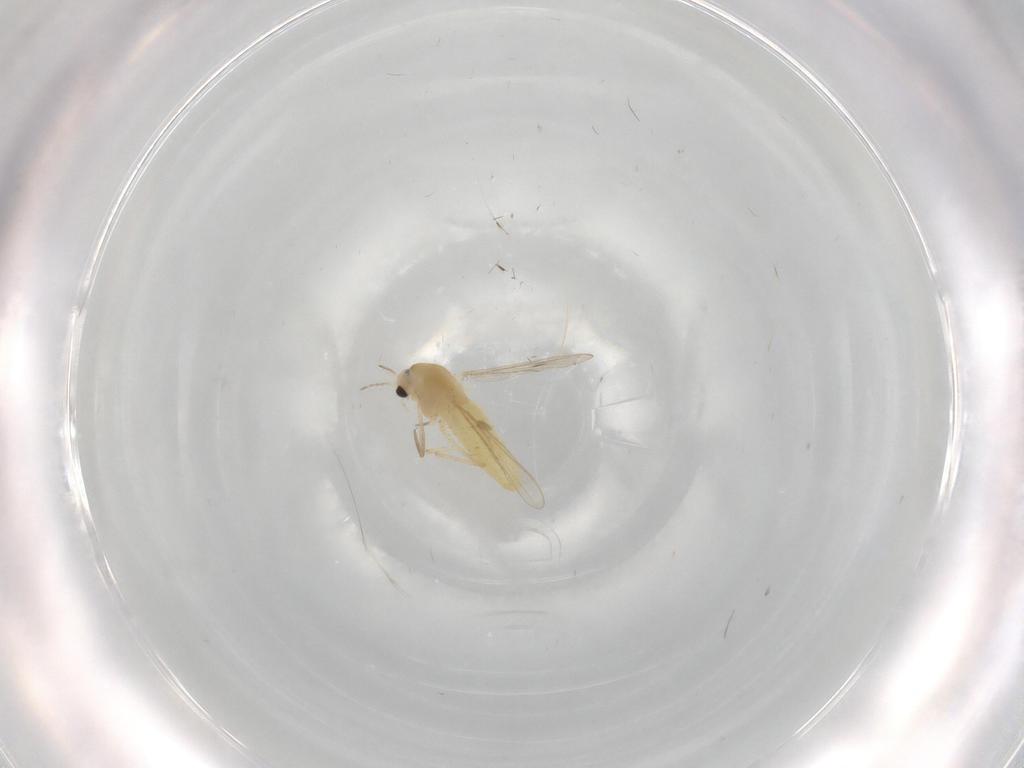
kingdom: Animalia
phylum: Arthropoda
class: Insecta
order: Diptera
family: Chironomidae
